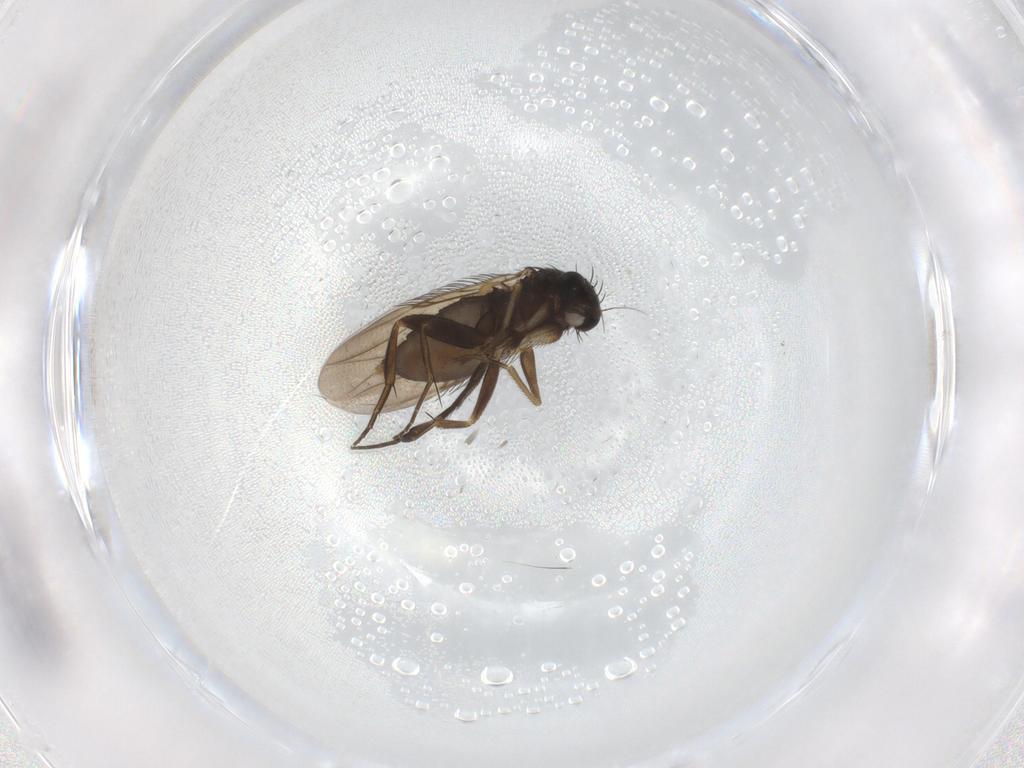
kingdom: Animalia
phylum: Arthropoda
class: Insecta
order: Diptera
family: Phoridae
